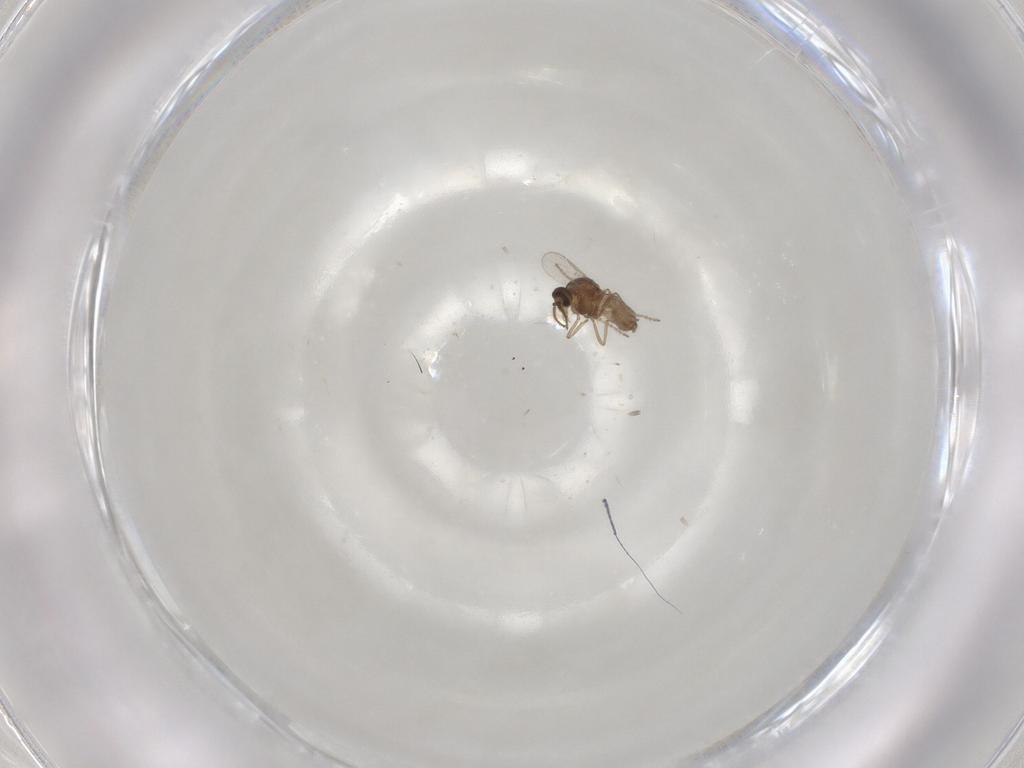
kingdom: Animalia
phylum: Arthropoda
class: Insecta
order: Diptera
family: Ceratopogonidae
